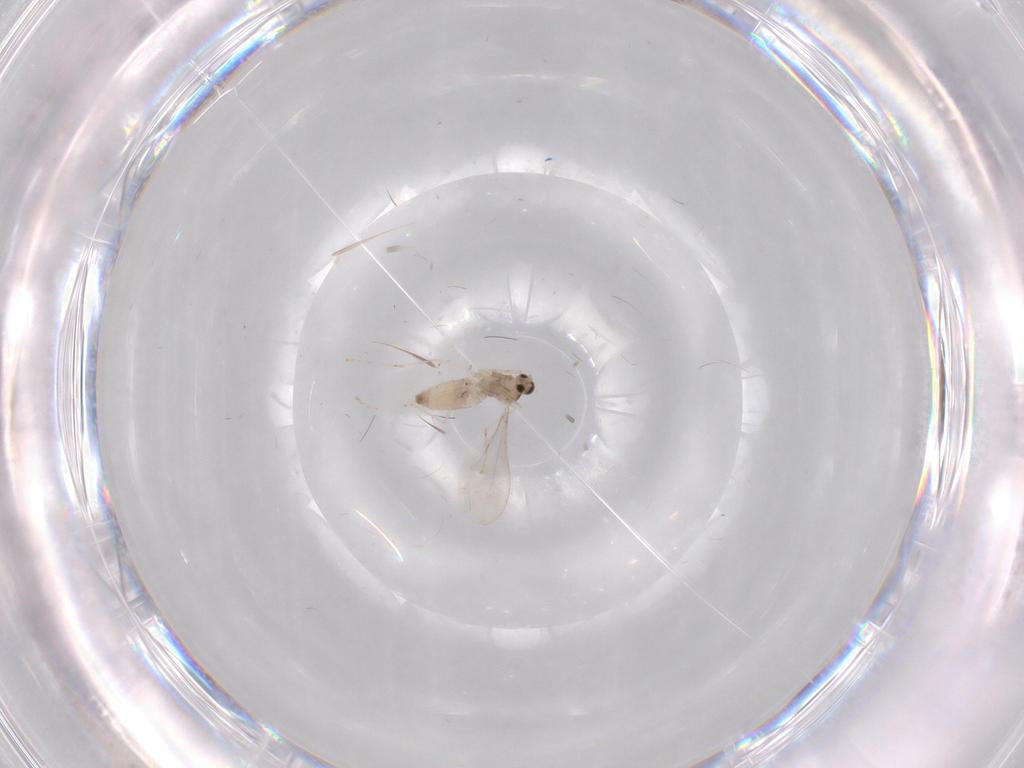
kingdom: Animalia
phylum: Arthropoda
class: Insecta
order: Diptera
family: Cecidomyiidae
